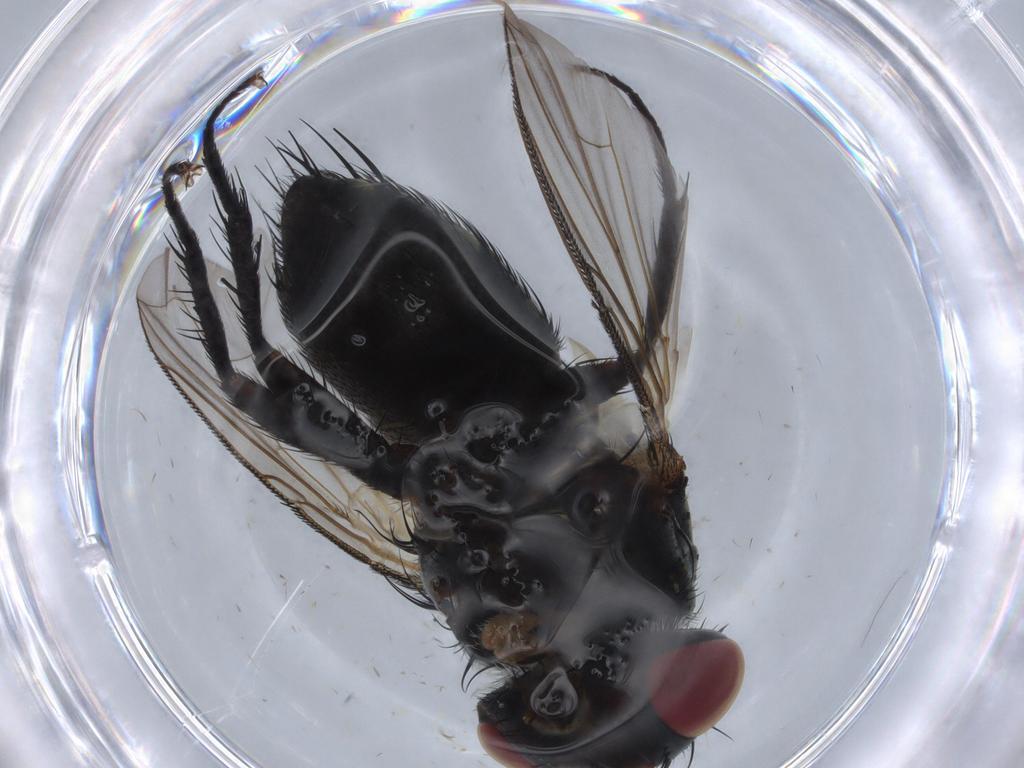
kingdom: Animalia
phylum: Arthropoda
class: Insecta
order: Diptera
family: Tachinidae
